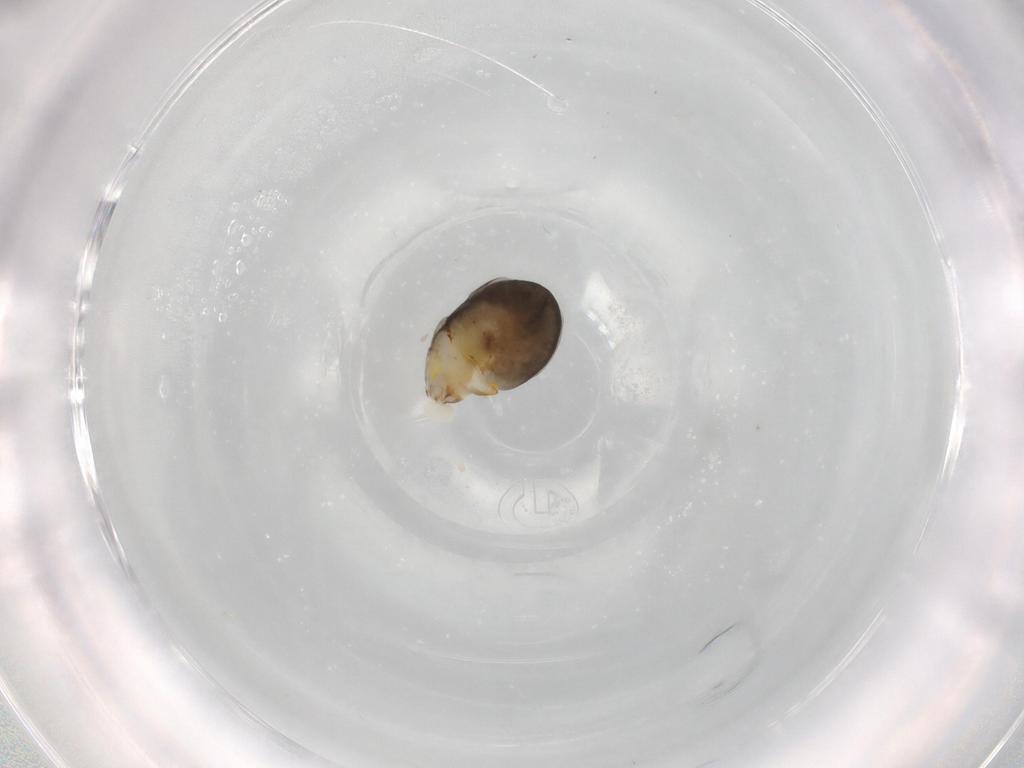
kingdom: Animalia
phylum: Arthropoda
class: Insecta
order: Hymenoptera
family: Dryinidae
